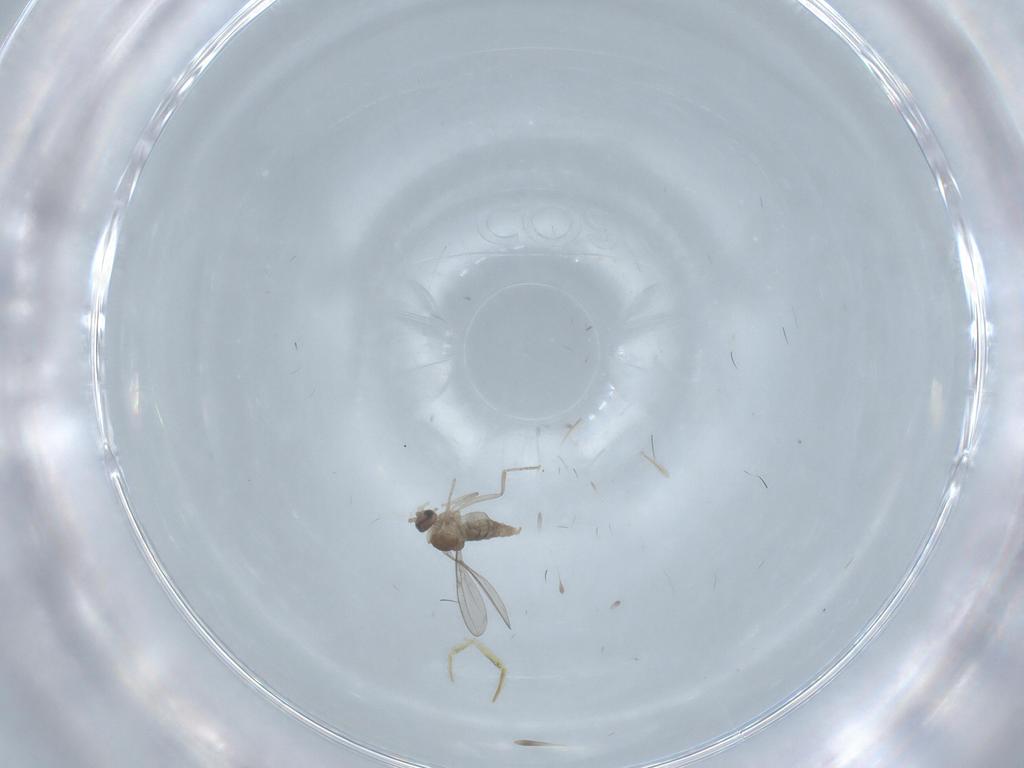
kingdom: Animalia
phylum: Arthropoda
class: Insecta
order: Diptera
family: Cecidomyiidae
